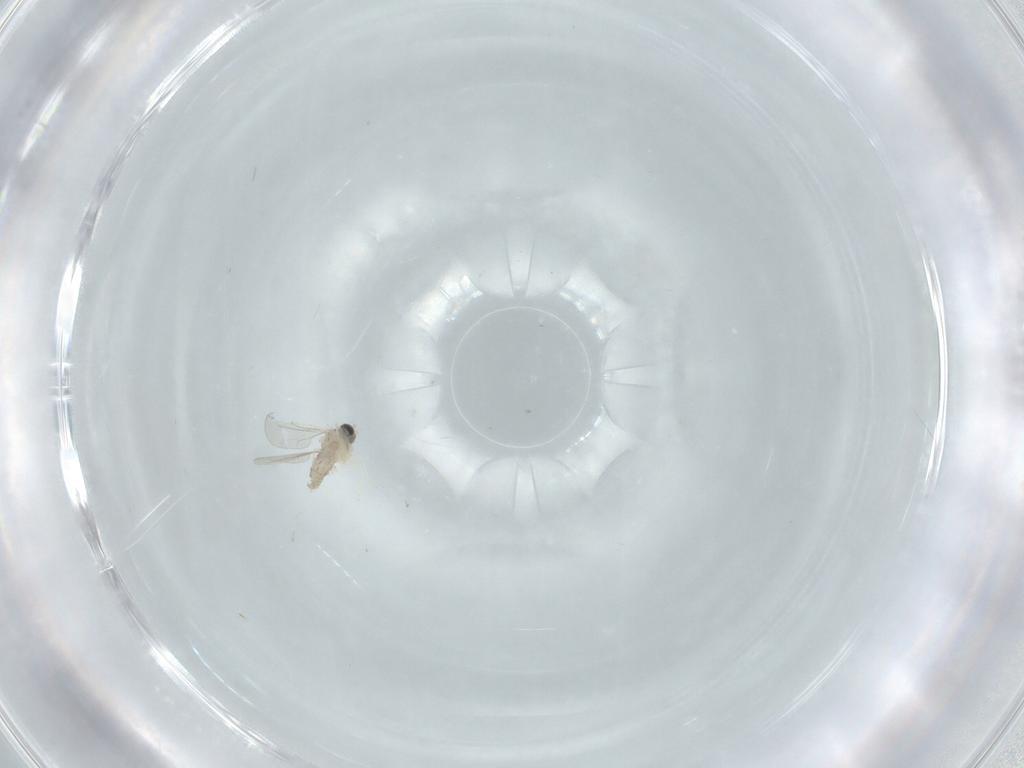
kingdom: Animalia
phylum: Arthropoda
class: Insecta
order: Diptera
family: Cecidomyiidae
